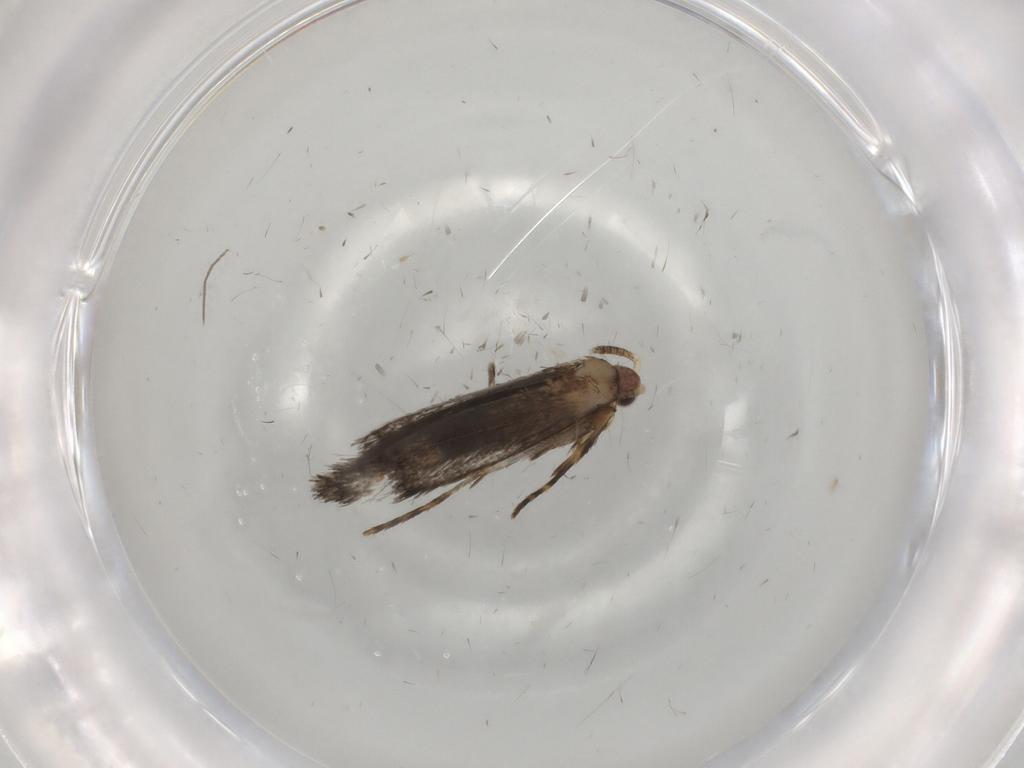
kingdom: Animalia
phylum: Arthropoda
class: Insecta
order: Lepidoptera
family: Tineidae
